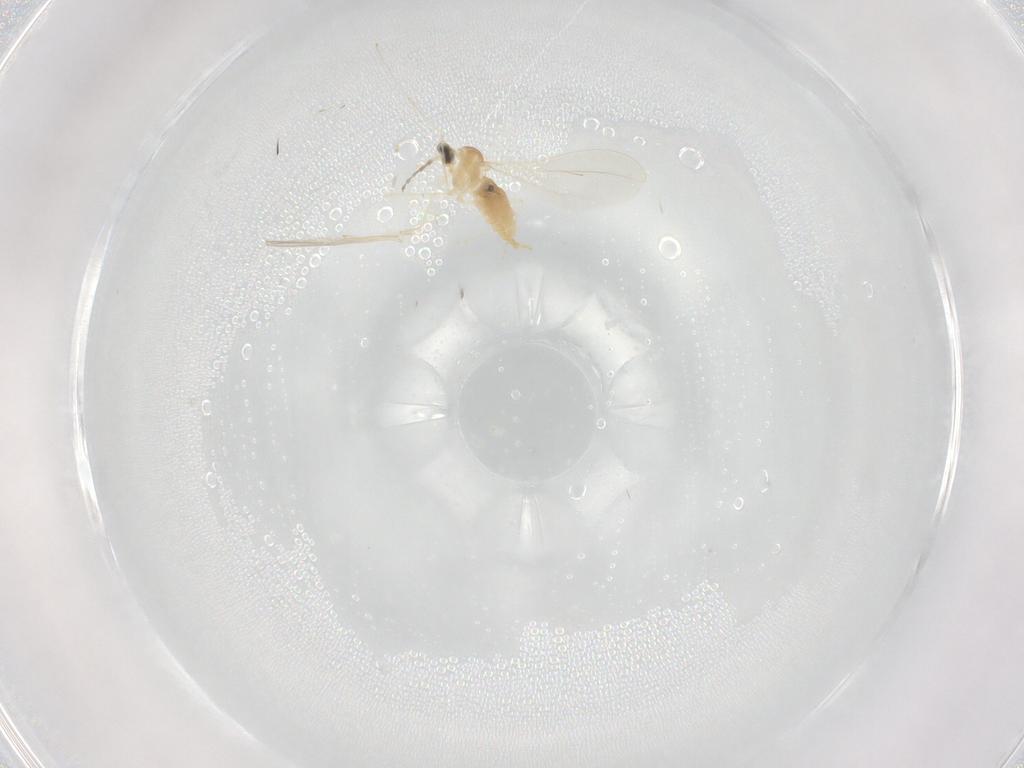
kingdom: Animalia
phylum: Arthropoda
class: Insecta
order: Diptera
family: Cecidomyiidae
